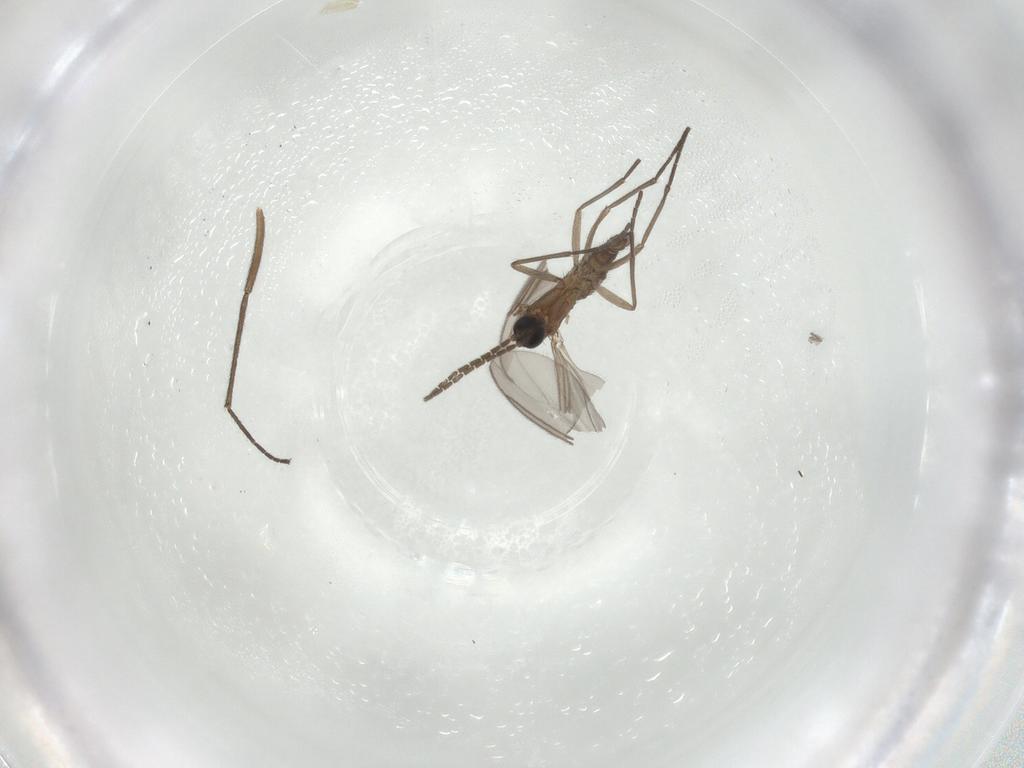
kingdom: Animalia
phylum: Arthropoda
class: Insecta
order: Diptera
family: Sciaridae
